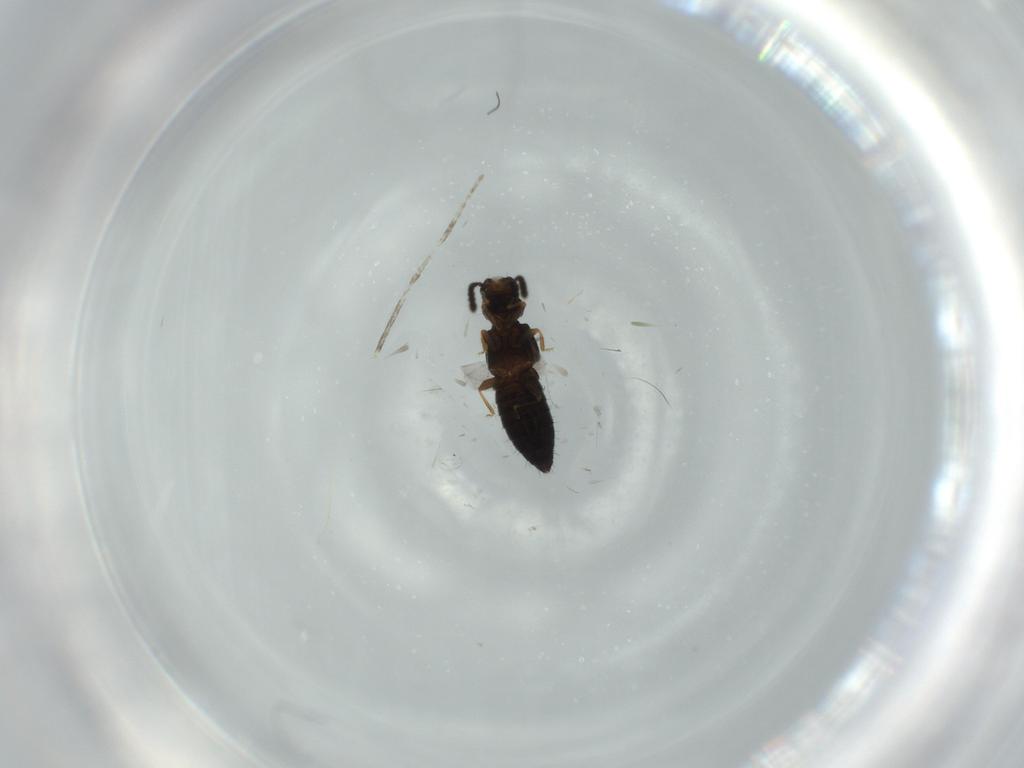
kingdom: Animalia
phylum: Arthropoda
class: Insecta
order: Coleoptera
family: Staphylinidae
